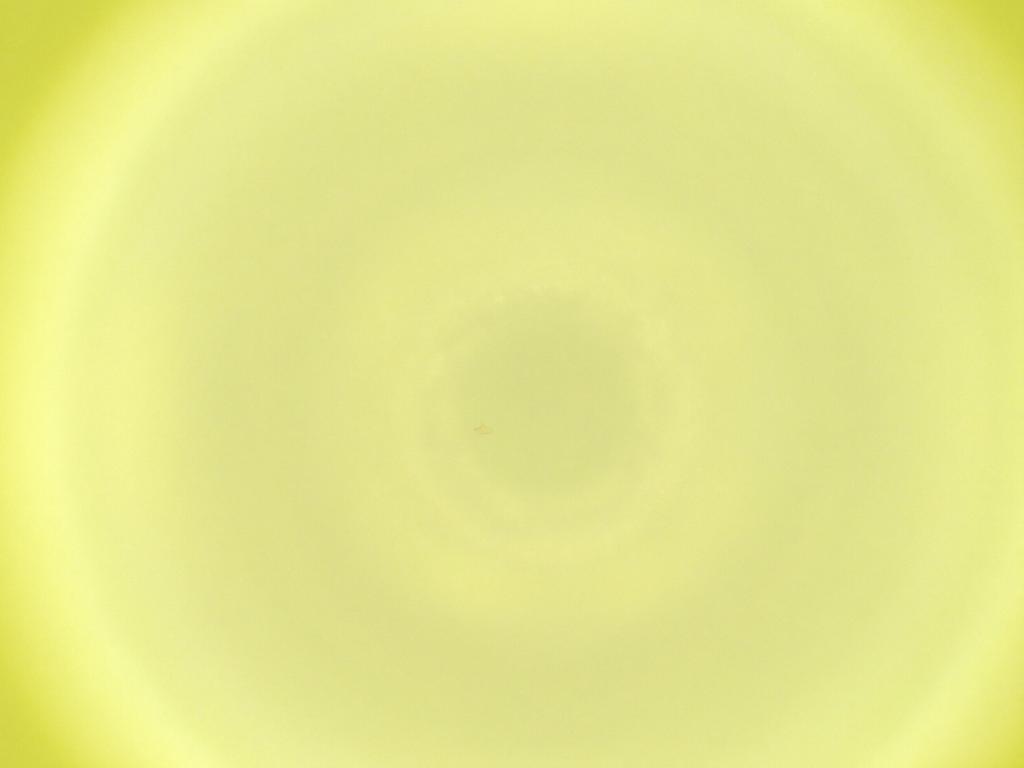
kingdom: Animalia
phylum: Arthropoda
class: Insecta
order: Diptera
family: Cecidomyiidae
